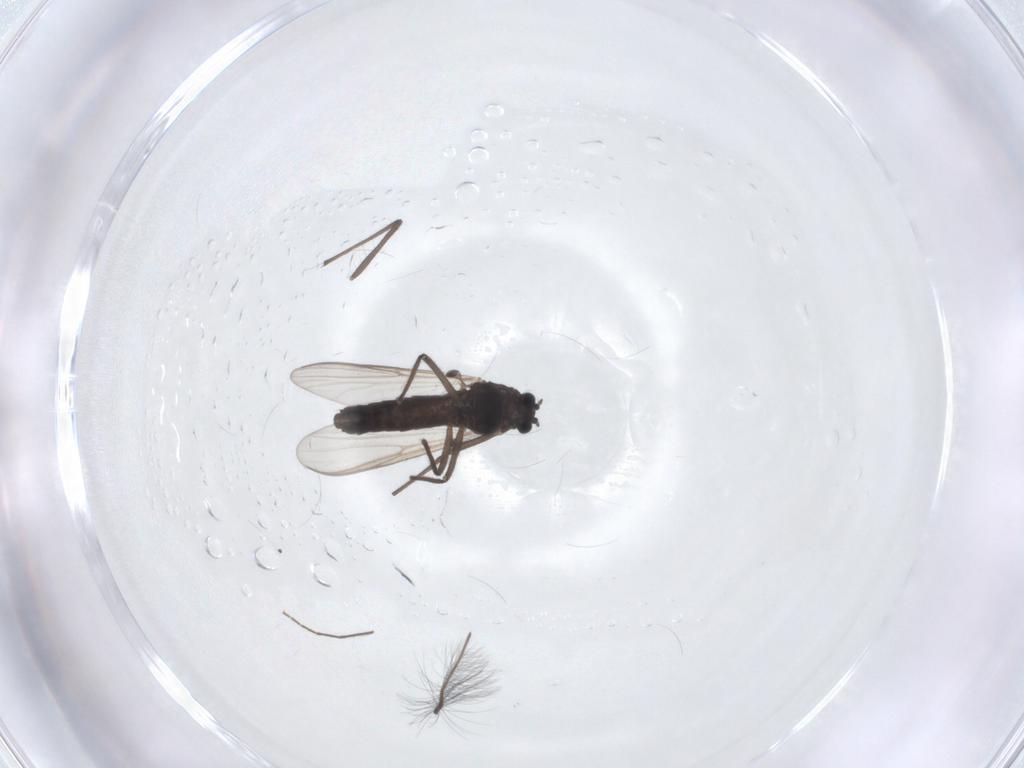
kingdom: Animalia
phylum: Arthropoda
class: Insecta
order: Diptera
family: Chironomidae
